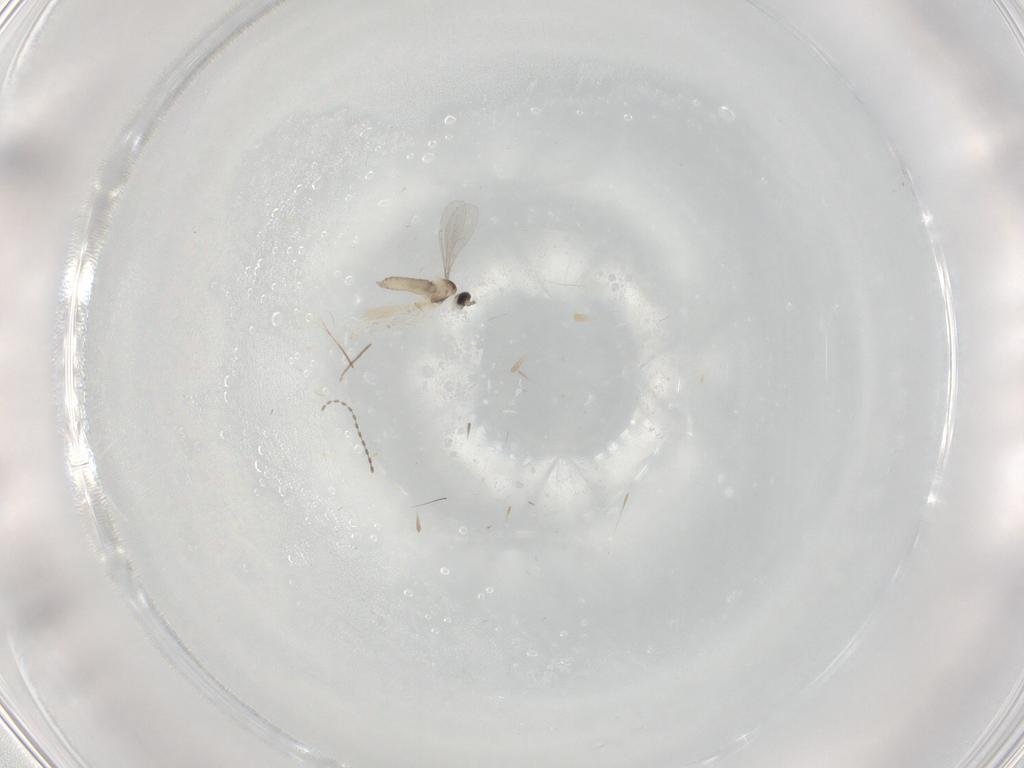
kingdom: Animalia
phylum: Arthropoda
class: Insecta
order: Diptera
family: Cecidomyiidae
